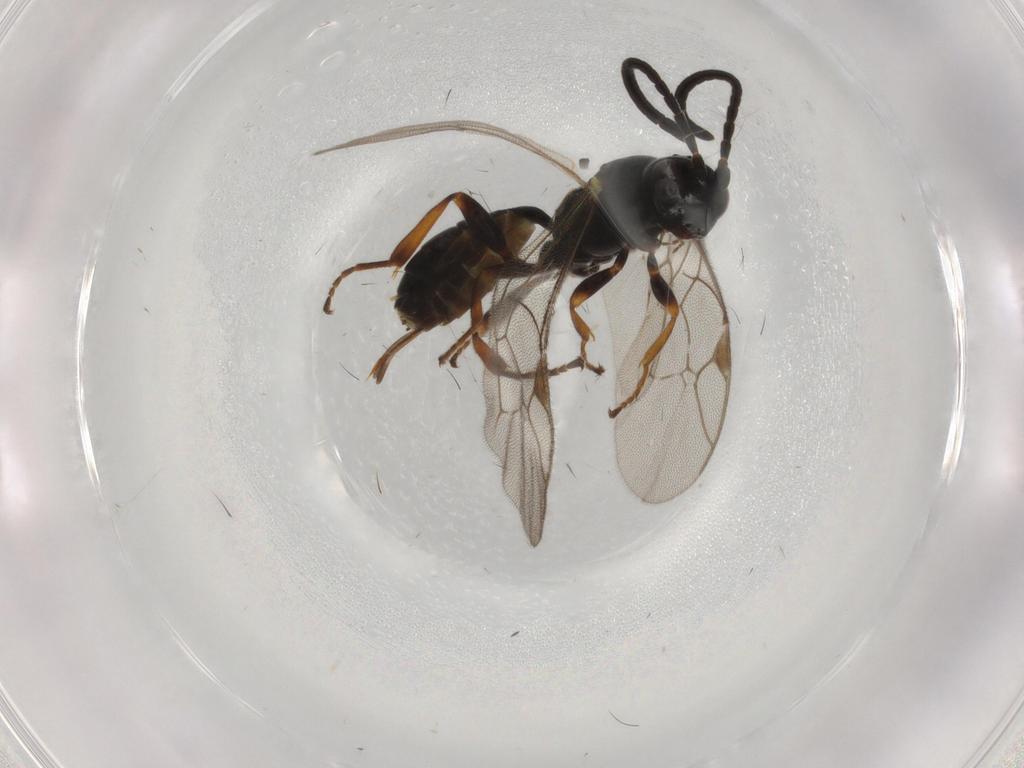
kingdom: Animalia
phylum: Arthropoda
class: Insecta
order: Hymenoptera
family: Ichneumonidae
